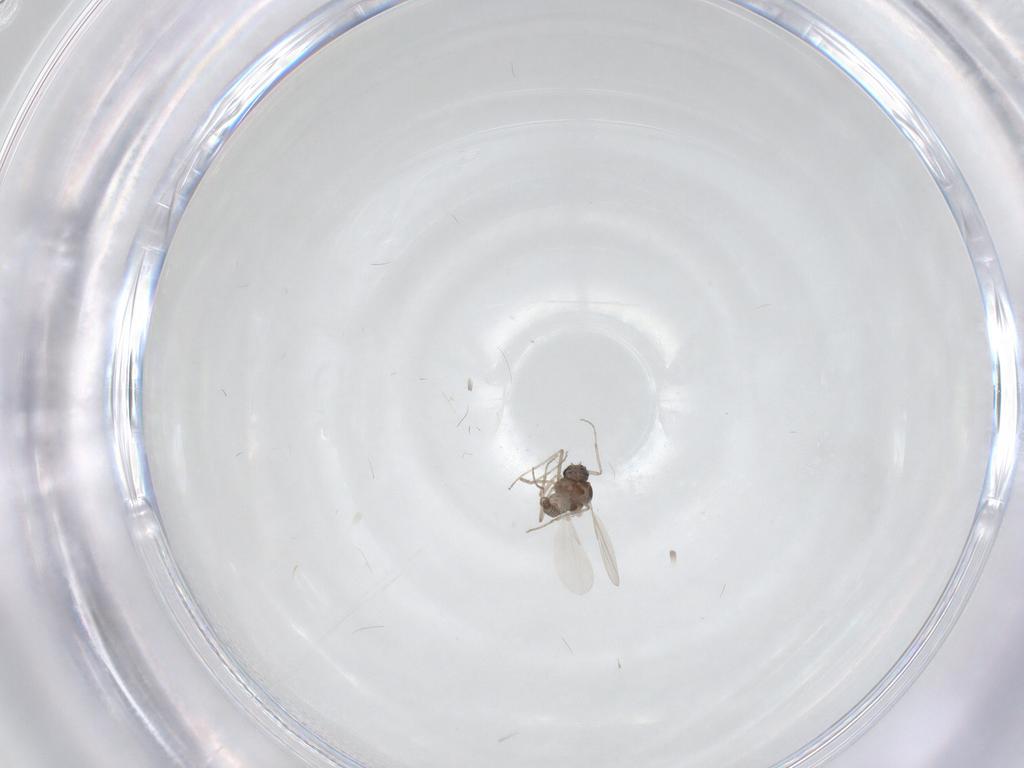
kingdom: Animalia
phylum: Arthropoda
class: Insecta
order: Diptera
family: Ceratopogonidae
